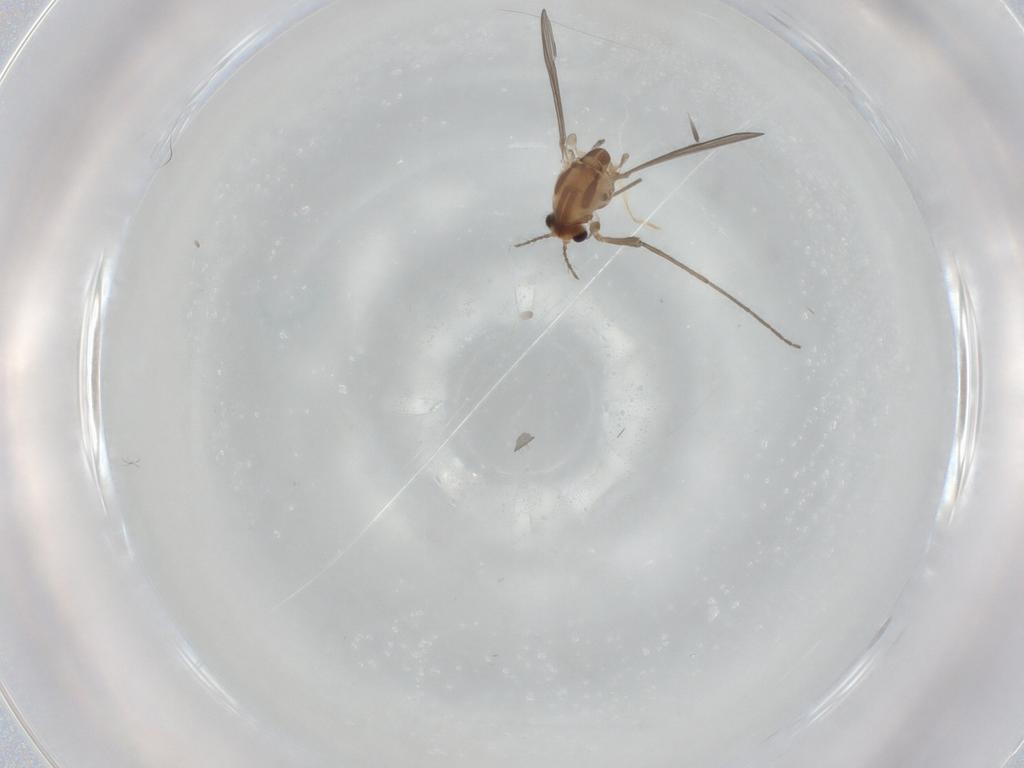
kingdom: Animalia
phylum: Arthropoda
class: Insecta
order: Diptera
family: Chironomidae
